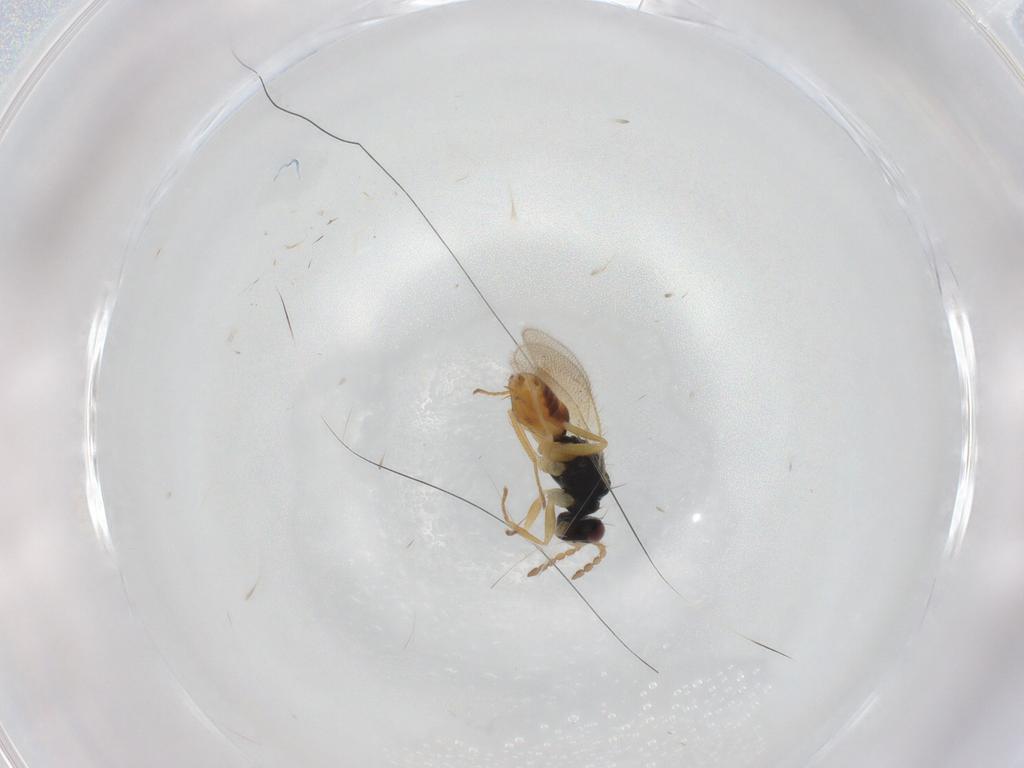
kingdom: Animalia
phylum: Arthropoda
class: Insecta
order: Hymenoptera
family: Eulophidae
